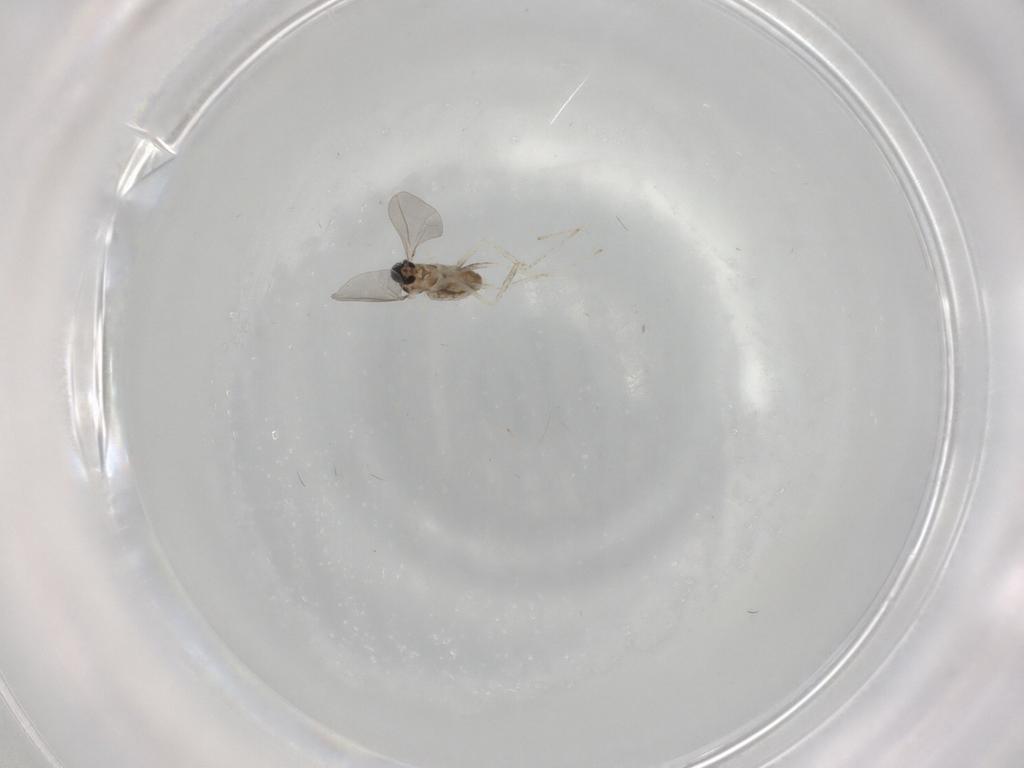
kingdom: Animalia
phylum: Arthropoda
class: Insecta
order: Diptera
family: Cecidomyiidae
